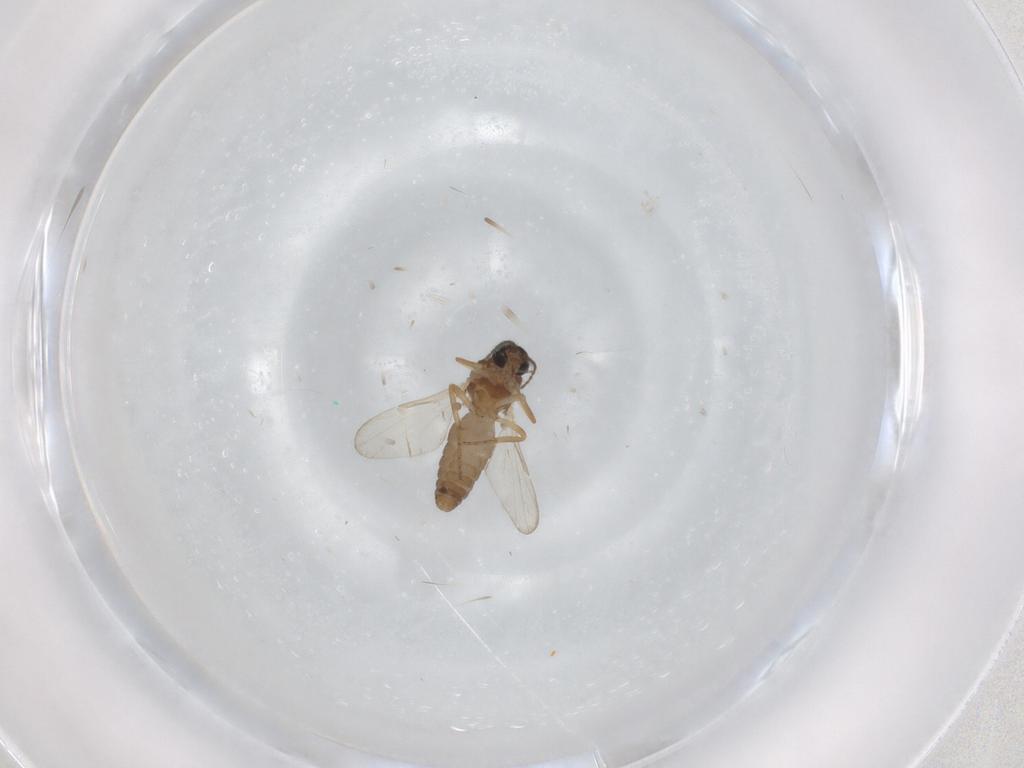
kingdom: Animalia
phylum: Arthropoda
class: Insecta
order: Diptera
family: Ceratopogonidae
